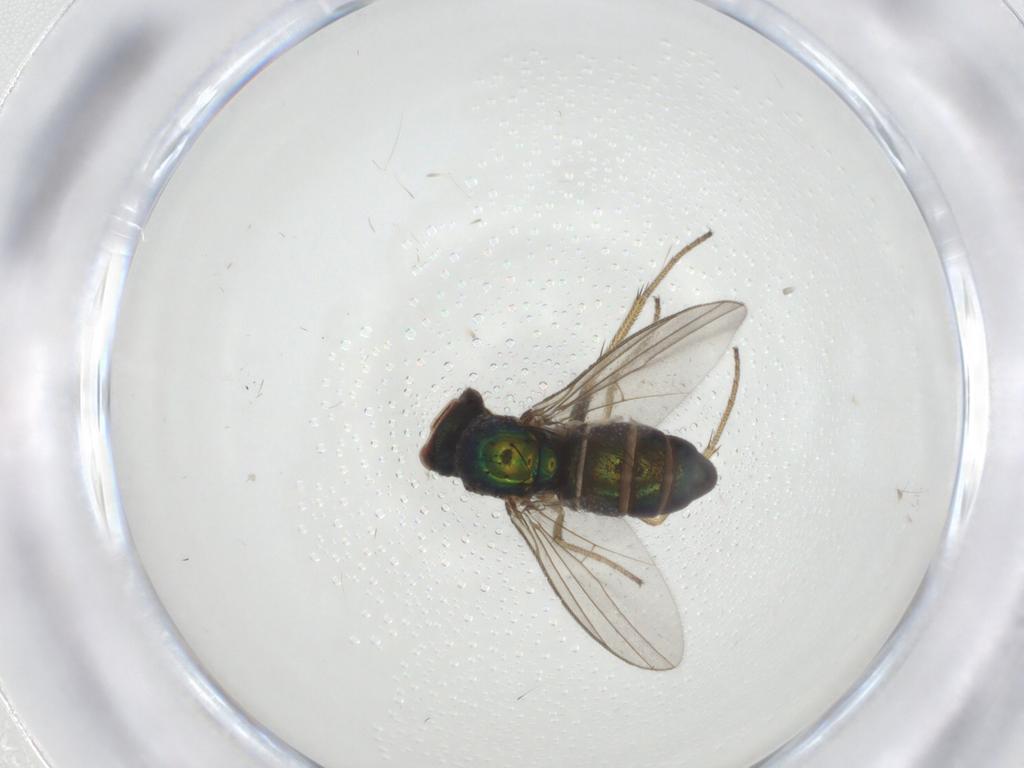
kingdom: Animalia
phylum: Arthropoda
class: Insecta
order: Diptera
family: Dolichopodidae
